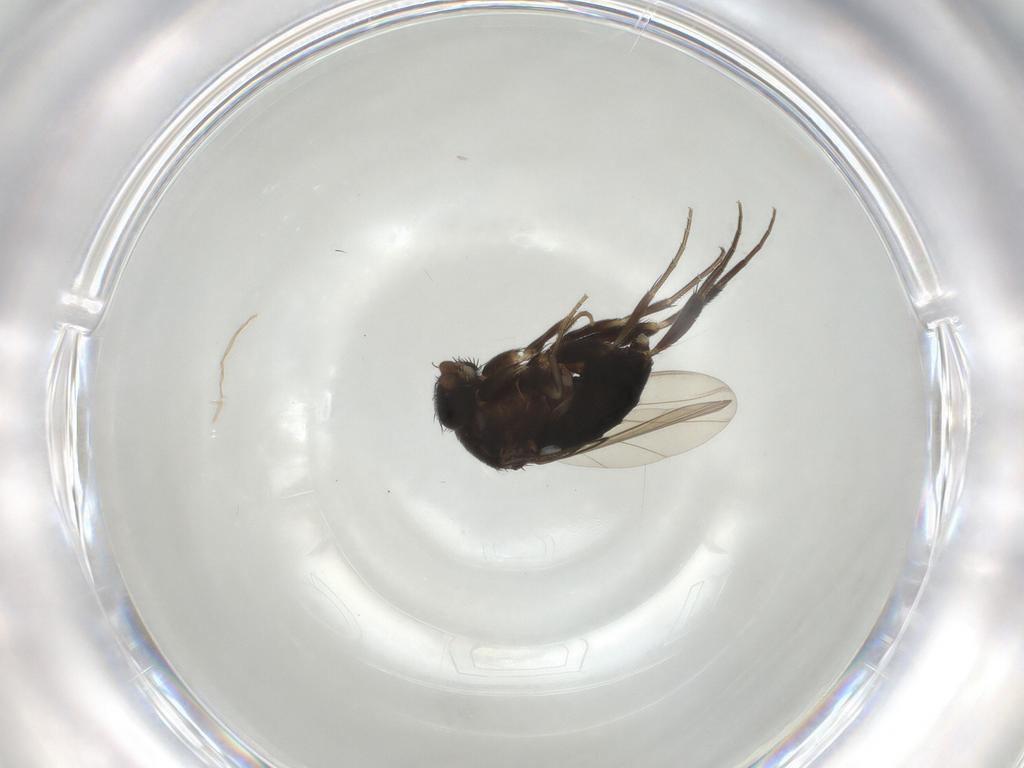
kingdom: Animalia
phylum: Arthropoda
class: Insecta
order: Diptera
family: Phoridae
